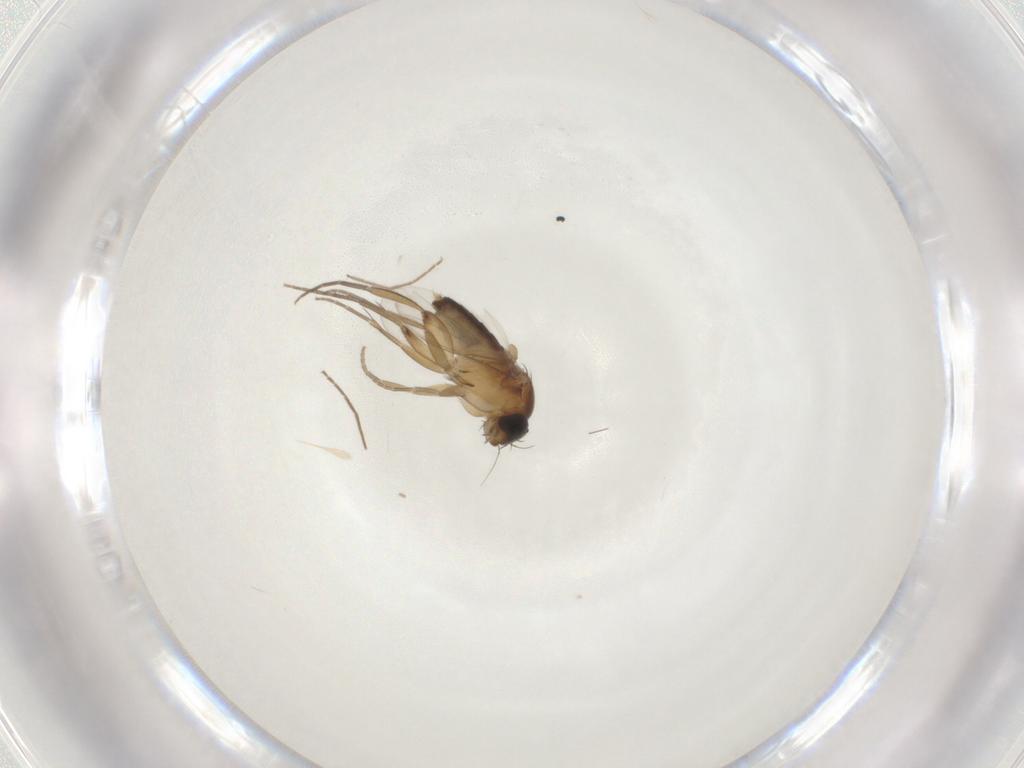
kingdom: Animalia
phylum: Arthropoda
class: Insecta
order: Diptera
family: Phoridae
